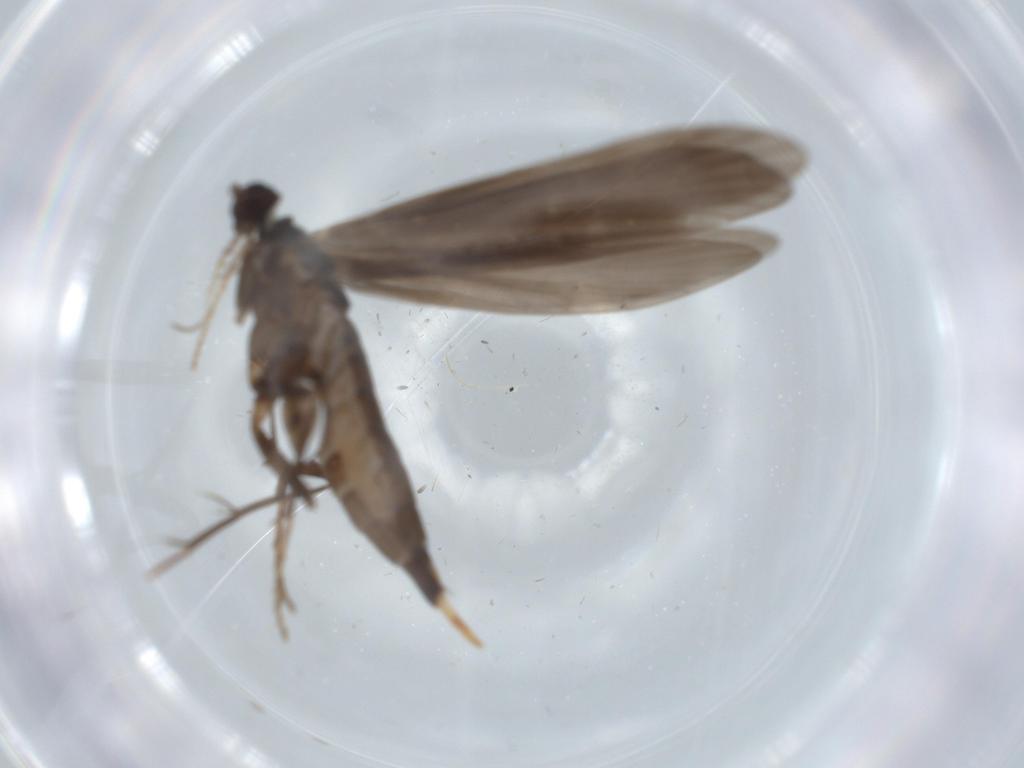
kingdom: Animalia
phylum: Arthropoda
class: Insecta
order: Trichoptera
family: Xiphocentronidae
